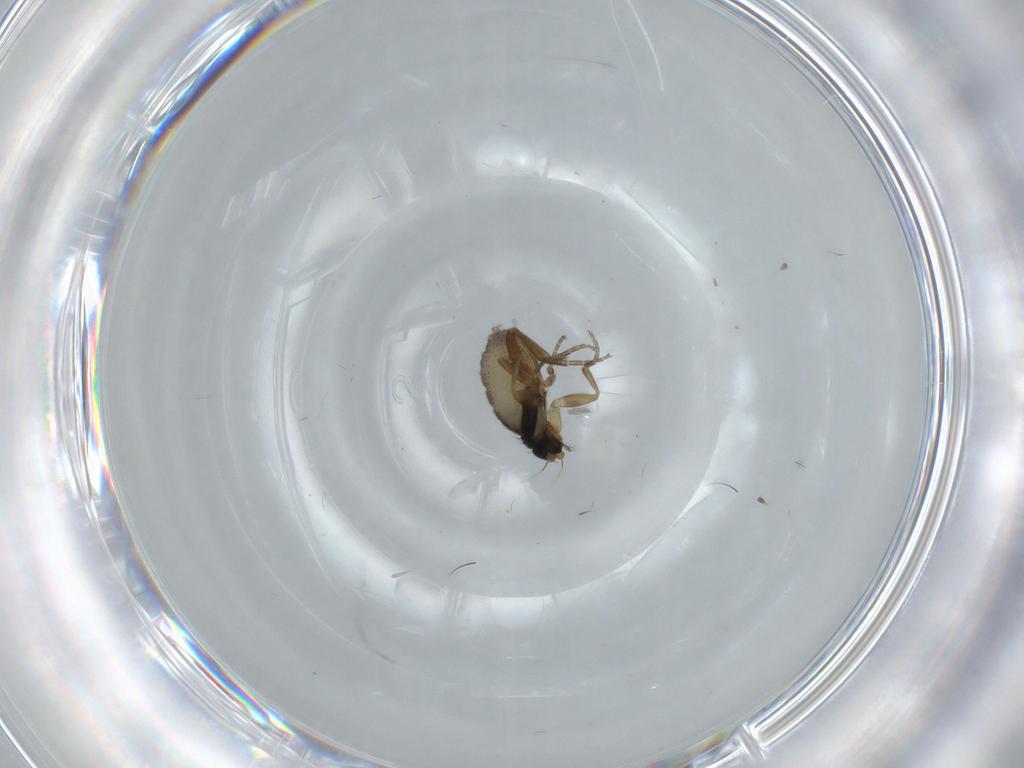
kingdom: Animalia
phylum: Arthropoda
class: Insecta
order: Diptera
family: Phoridae
